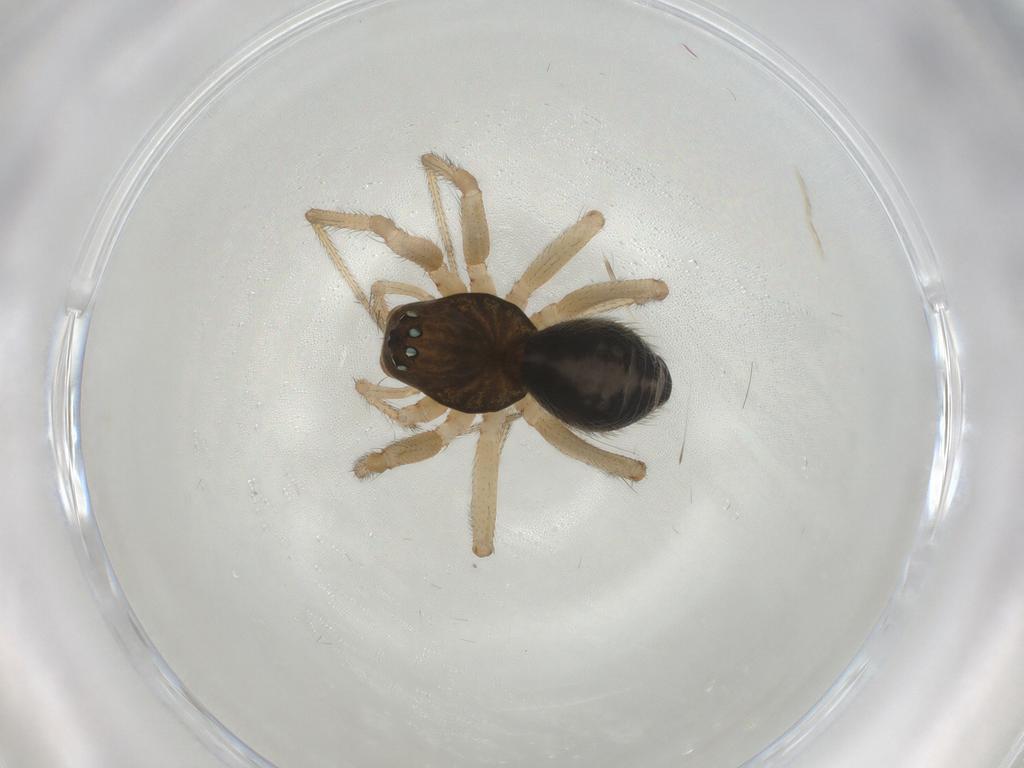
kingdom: Animalia
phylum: Arthropoda
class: Arachnida
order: Araneae
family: Linyphiidae
